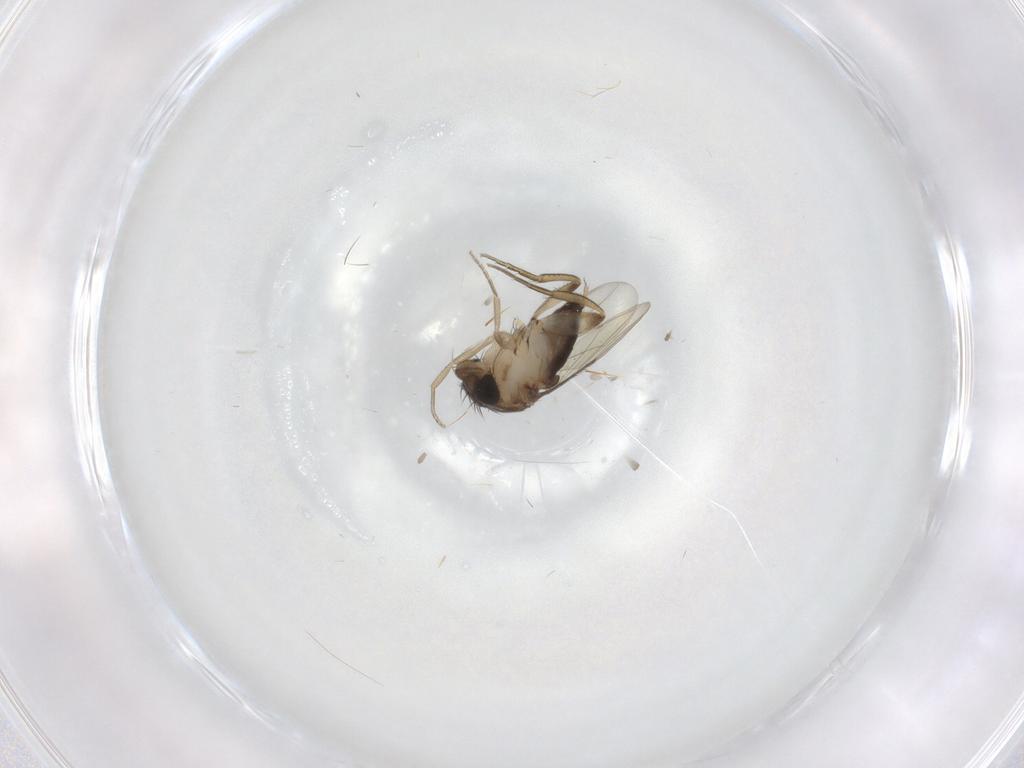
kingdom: Animalia
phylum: Arthropoda
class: Insecta
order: Diptera
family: Phoridae
